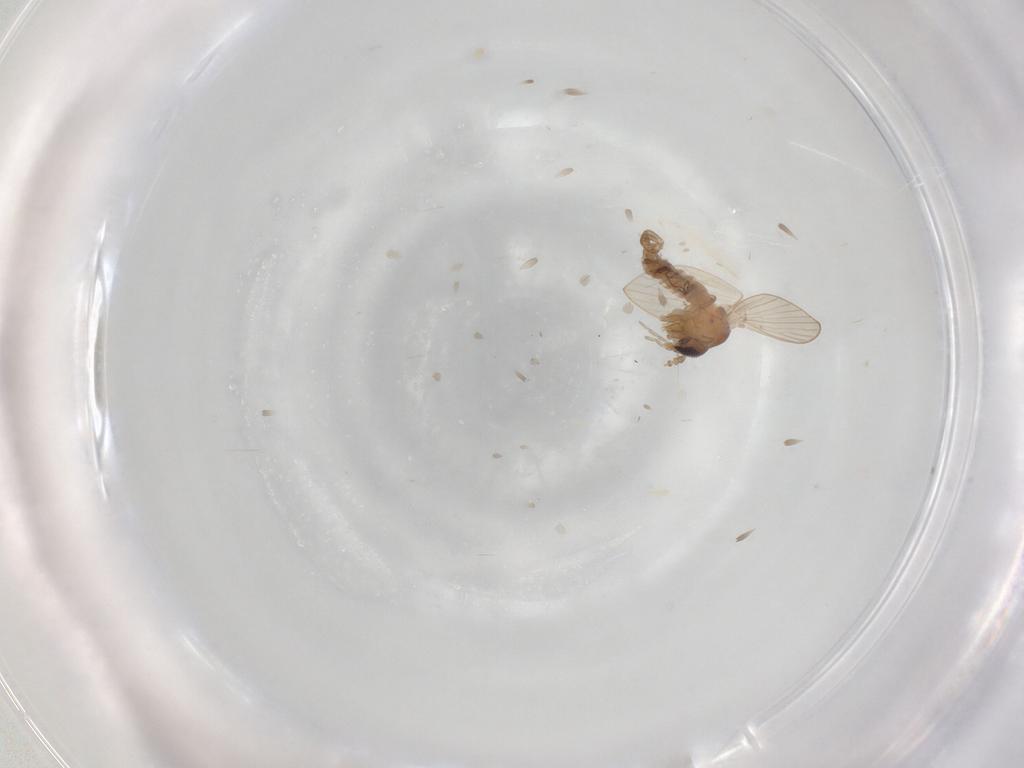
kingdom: Animalia
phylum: Arthropoda
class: Insecta
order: Diptera
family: Psychodidae
